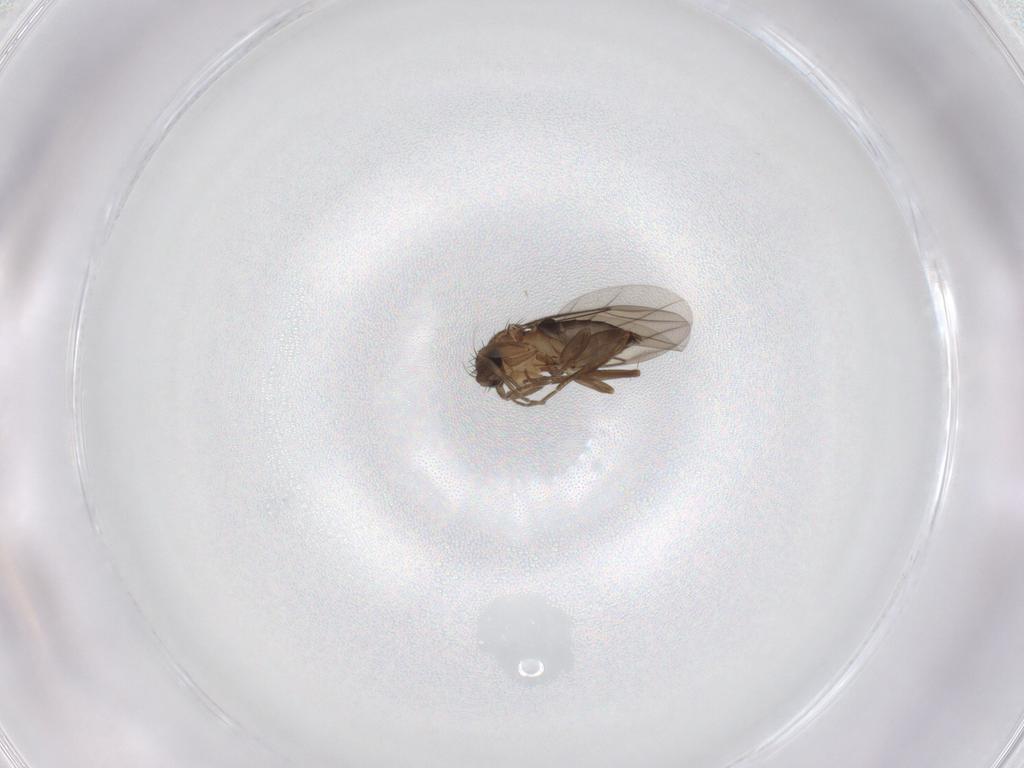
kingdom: Animalia
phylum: Arthropoda
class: Insecta
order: Diptera
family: Phoridae
